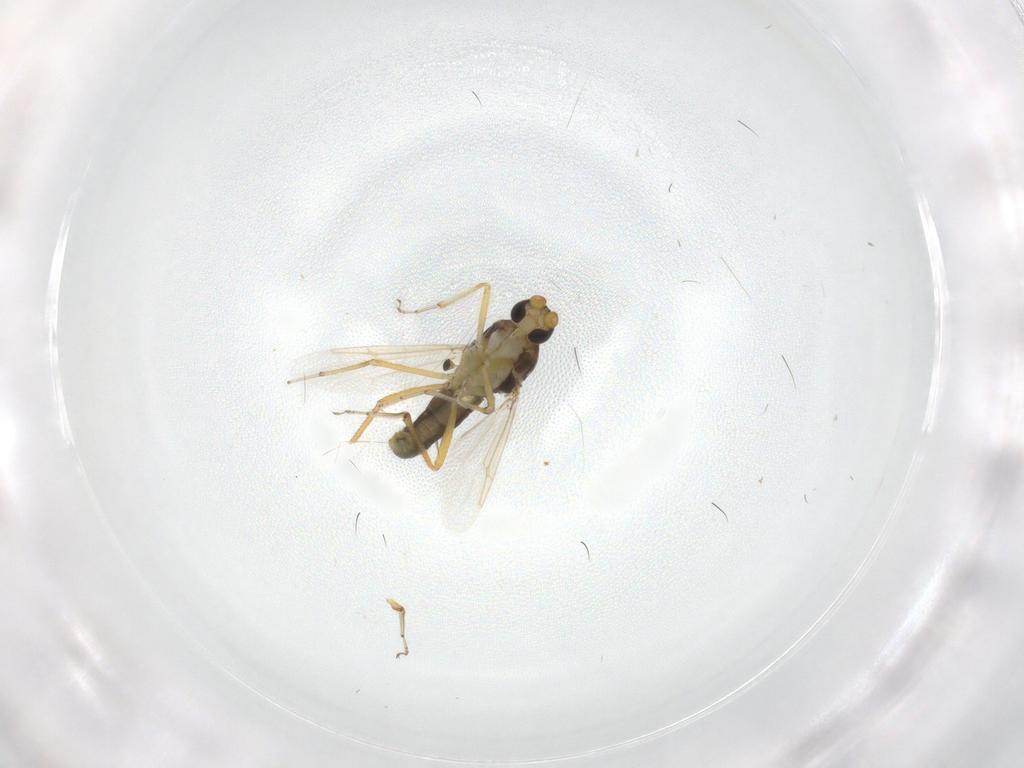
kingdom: Animalia
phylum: Arthropoda
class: Insecta
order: Diptera
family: Ceratopogonidae
